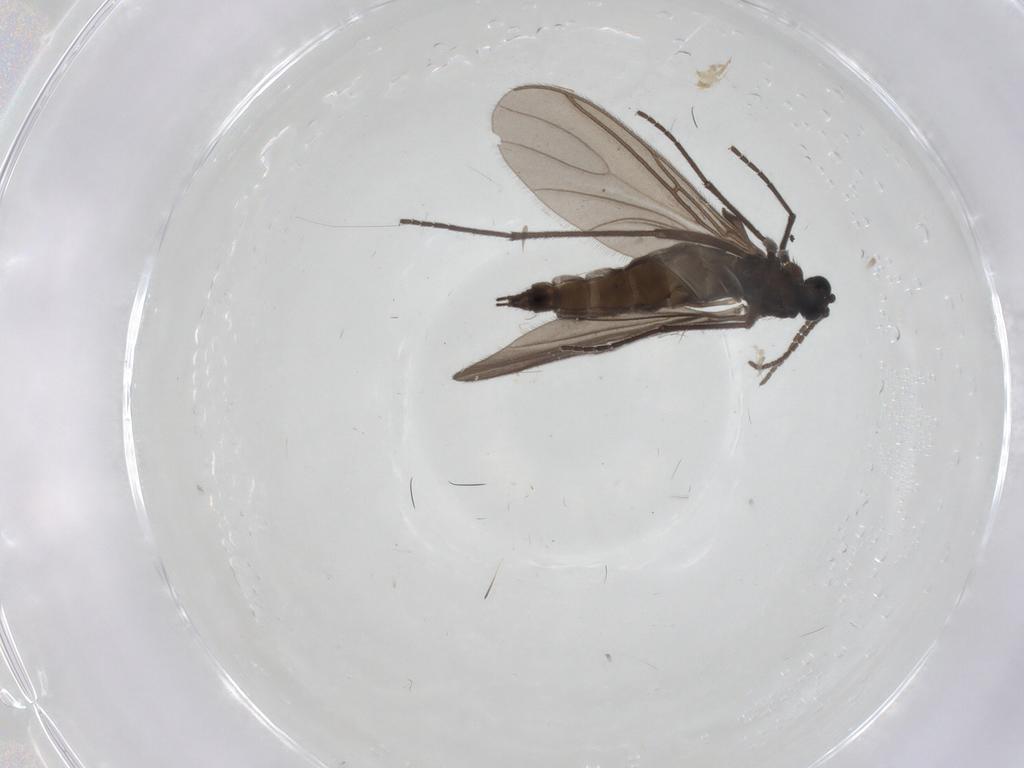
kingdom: Animalia
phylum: Arthropoda
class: Insecta
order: Diptera
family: Sciaridae
